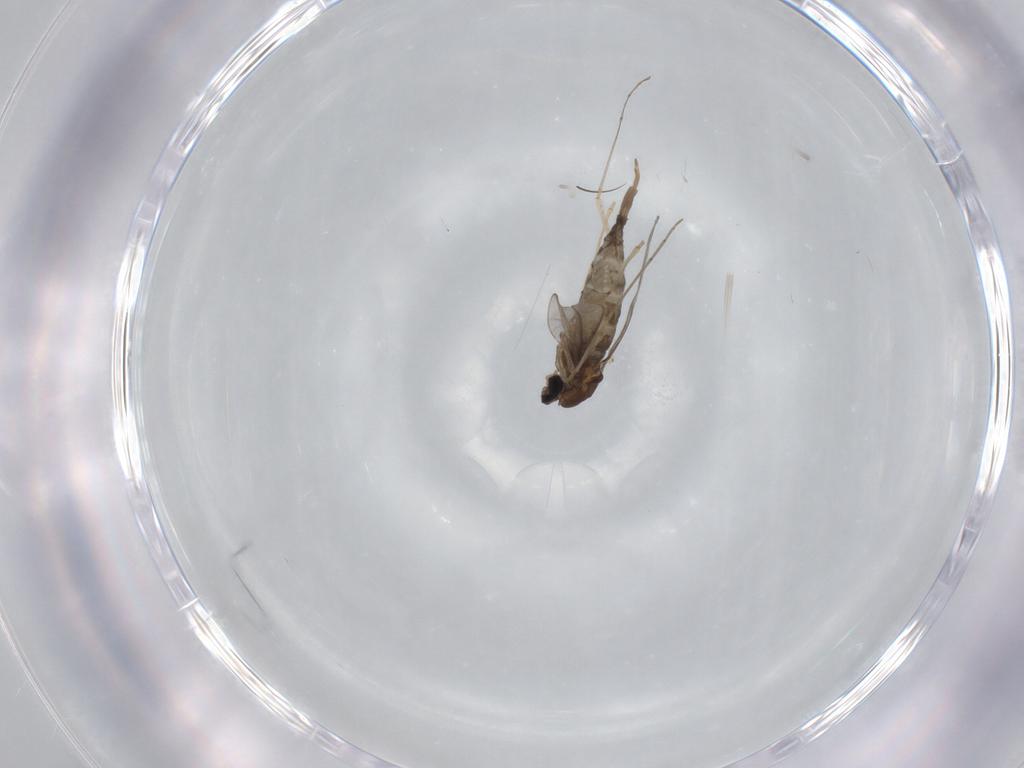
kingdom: Animalia
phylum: Arthropoda
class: Insecta
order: Diptera
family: Cecidomyiidae
